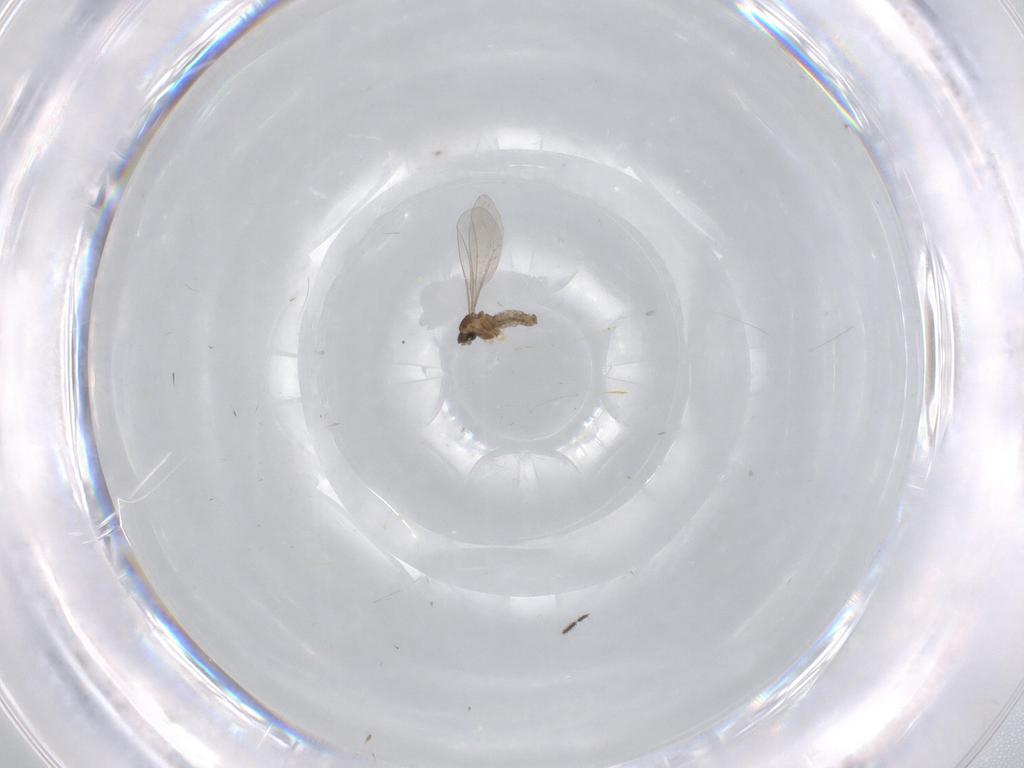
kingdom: Animalia
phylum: Arthropoda
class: Insecta
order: Diptera
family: Cecidomyiidae
